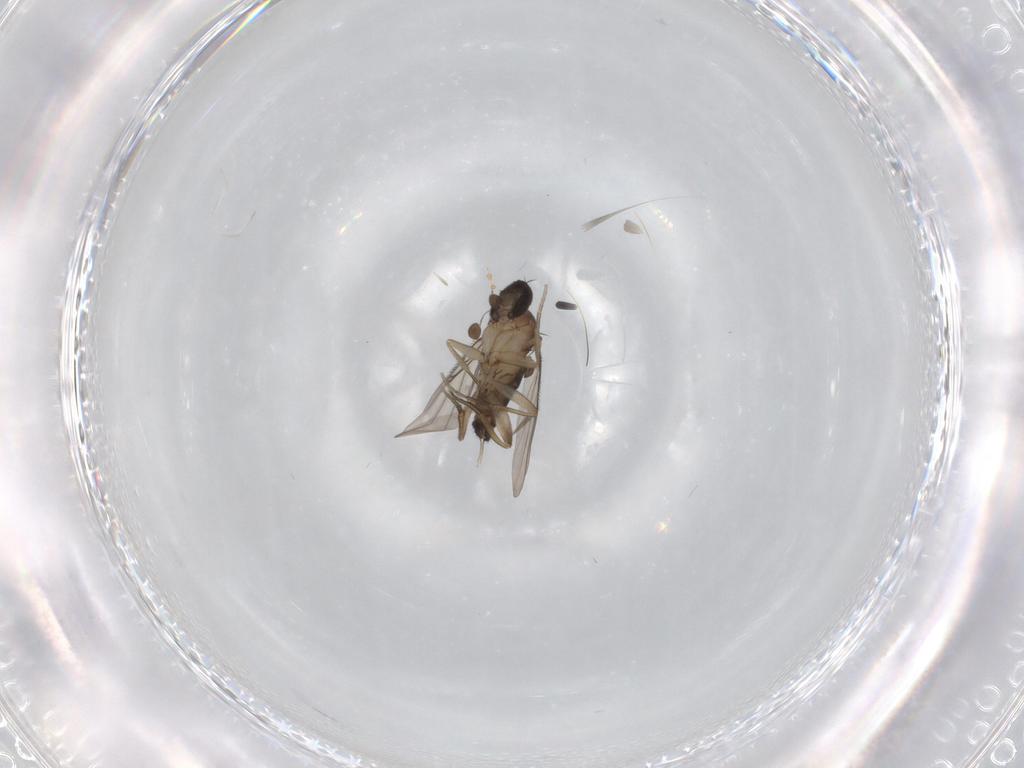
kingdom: Animalia
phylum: Arthropoda
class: Insecta
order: Diptera
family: Phoridae
